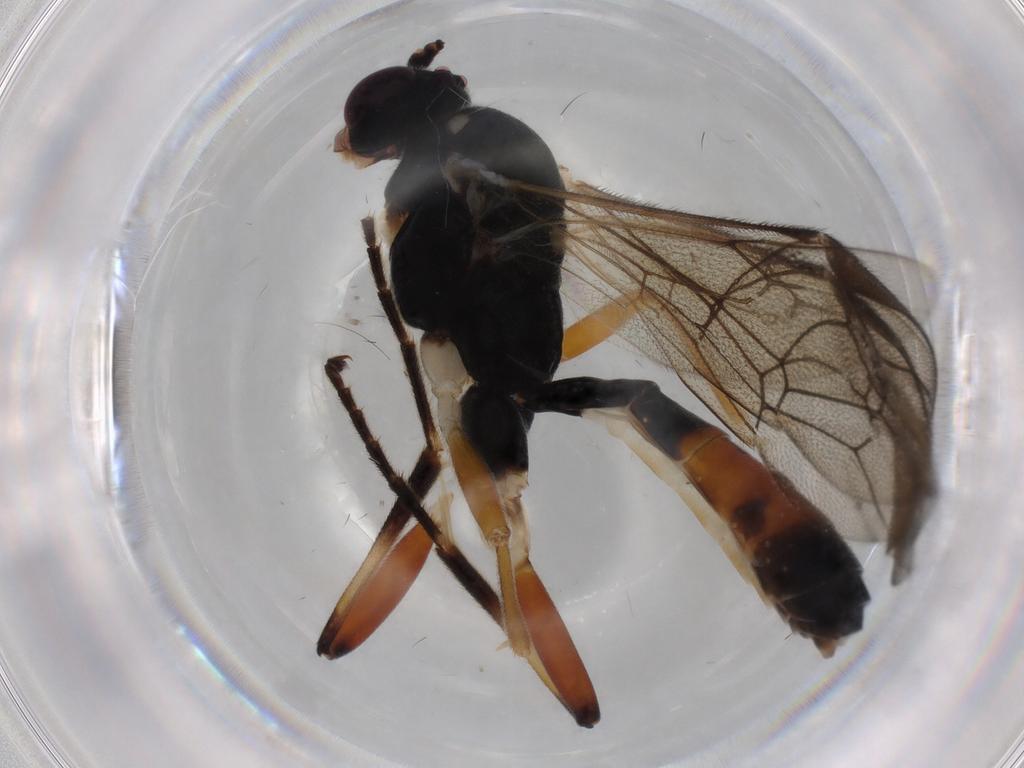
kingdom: Animalia
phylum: Arthropoda
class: Insecta
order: Hymenoptera
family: Ichneumonidae
